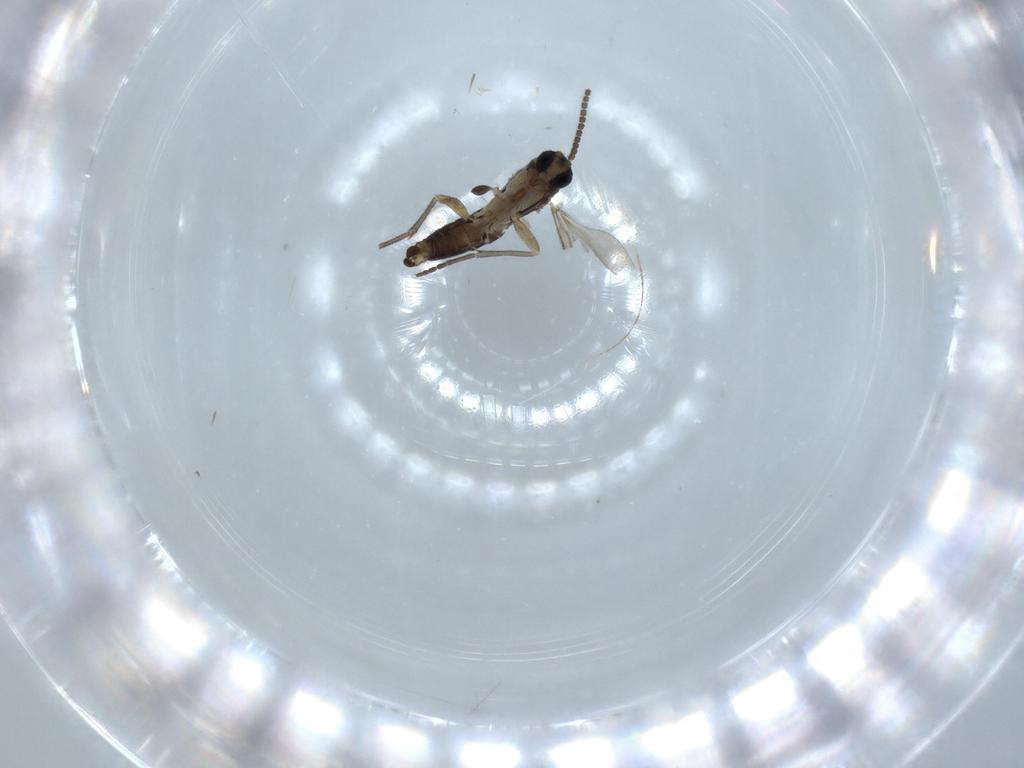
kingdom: Animalia
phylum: Arthropoda
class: Insecta
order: Diptera
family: Sciaridae
